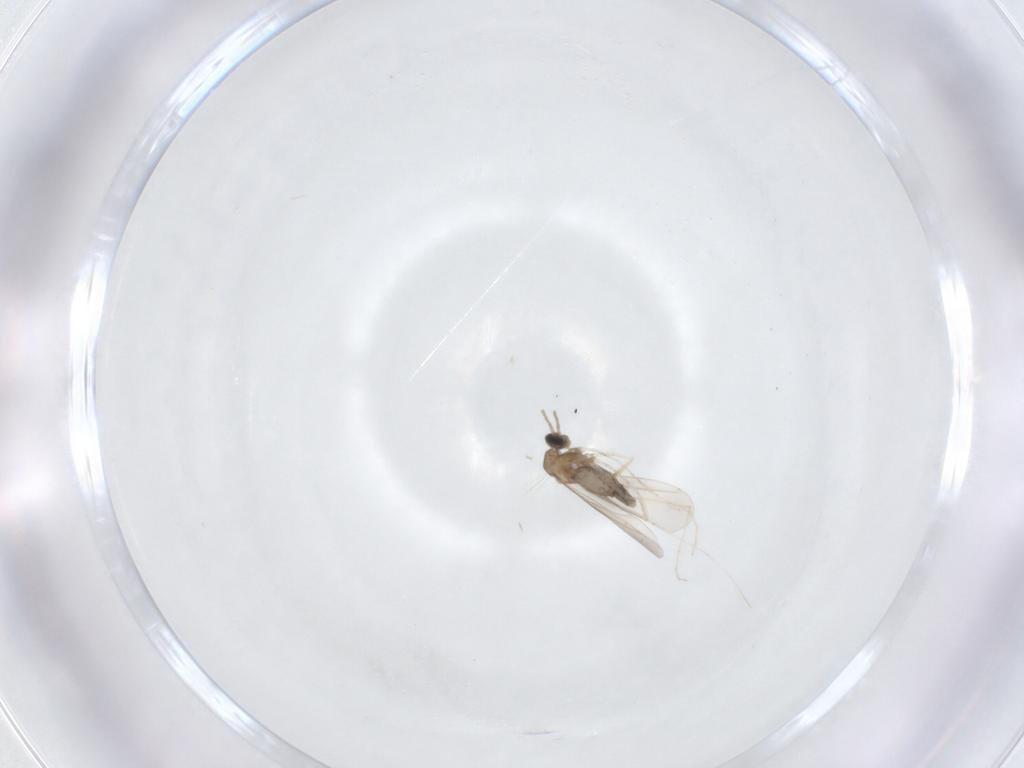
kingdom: Animalia
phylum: Arthropoda
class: Insecta
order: Diptera
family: Cecidomyiidae
